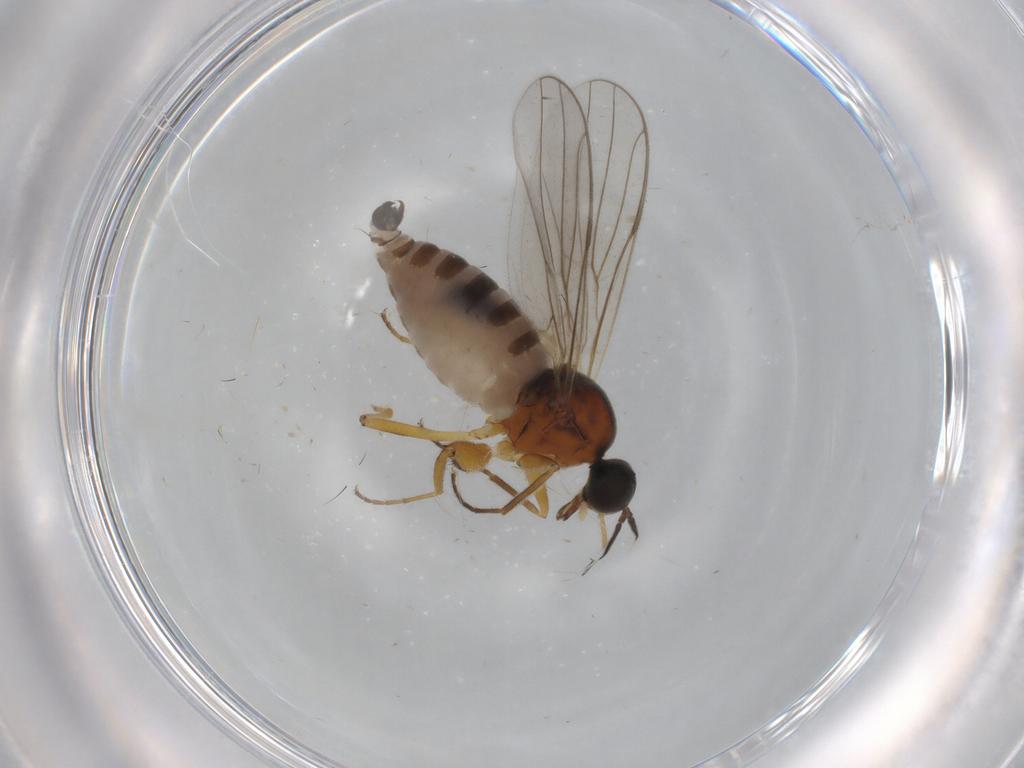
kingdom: Animalia
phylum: Arthropoda
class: Insecta
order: Diptera
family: Hybotidae
